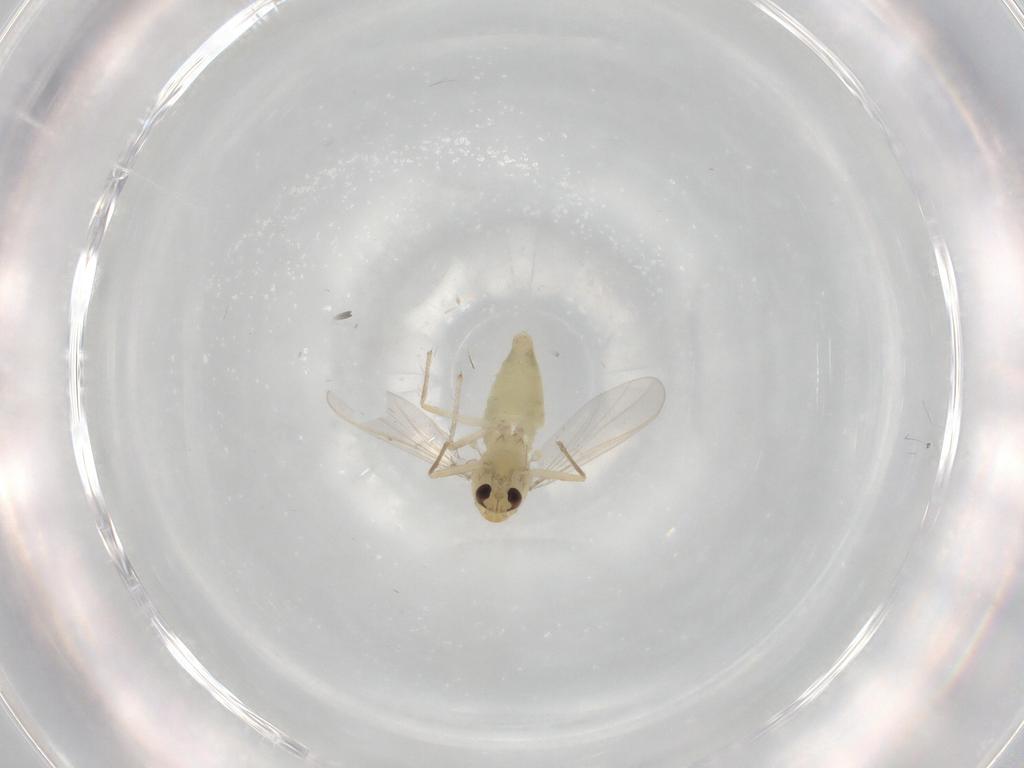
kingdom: Animalia
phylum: Arthropoda
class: Insecta
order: Diptera
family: Chironomidae
